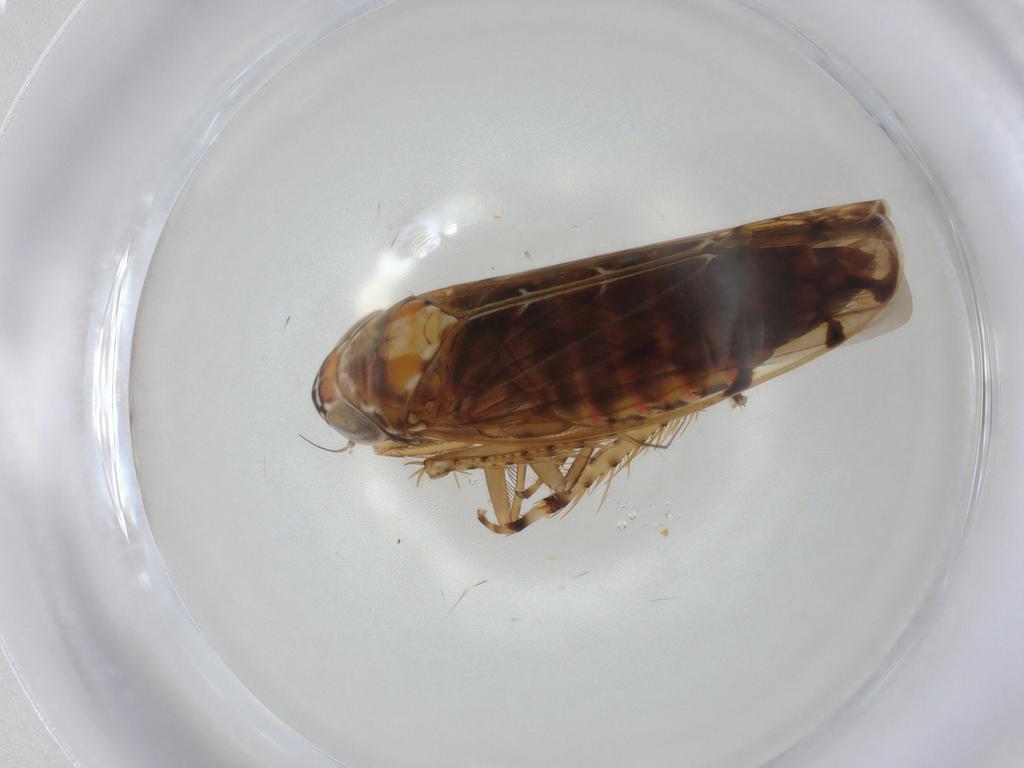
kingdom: Animalia
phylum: Arthropoda
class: Insecta
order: Hemiptera
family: Cicadellidae
